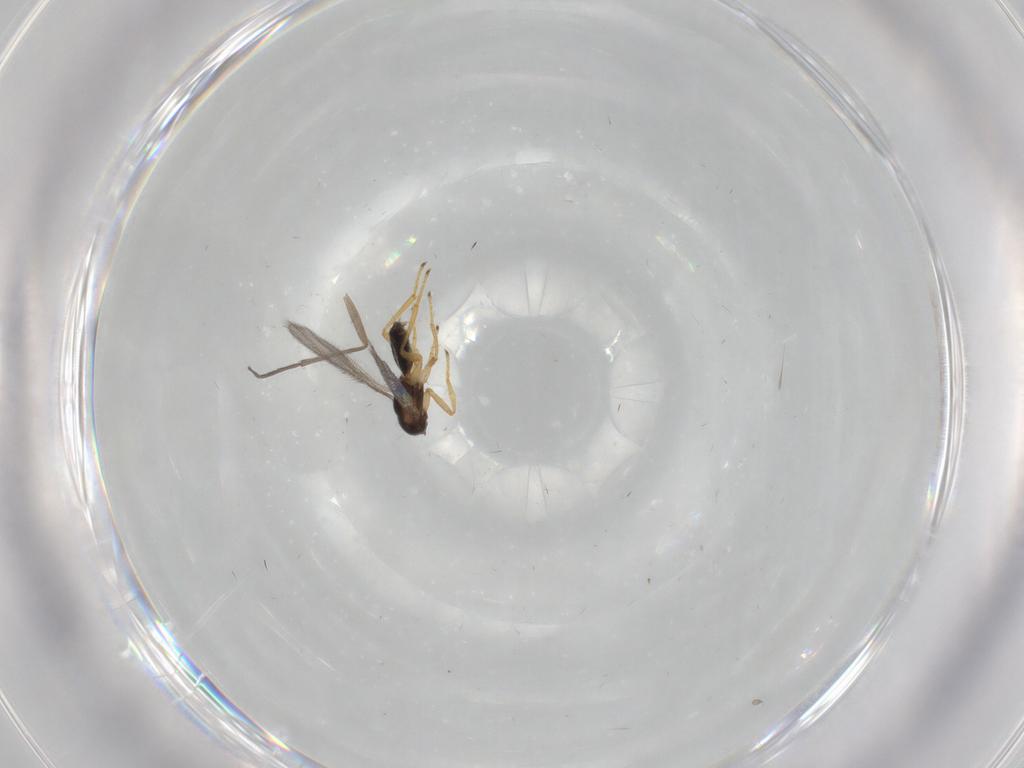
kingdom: Animalia
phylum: Arthropoda
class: Insecta
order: Hymenoptera
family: Eulophidae
